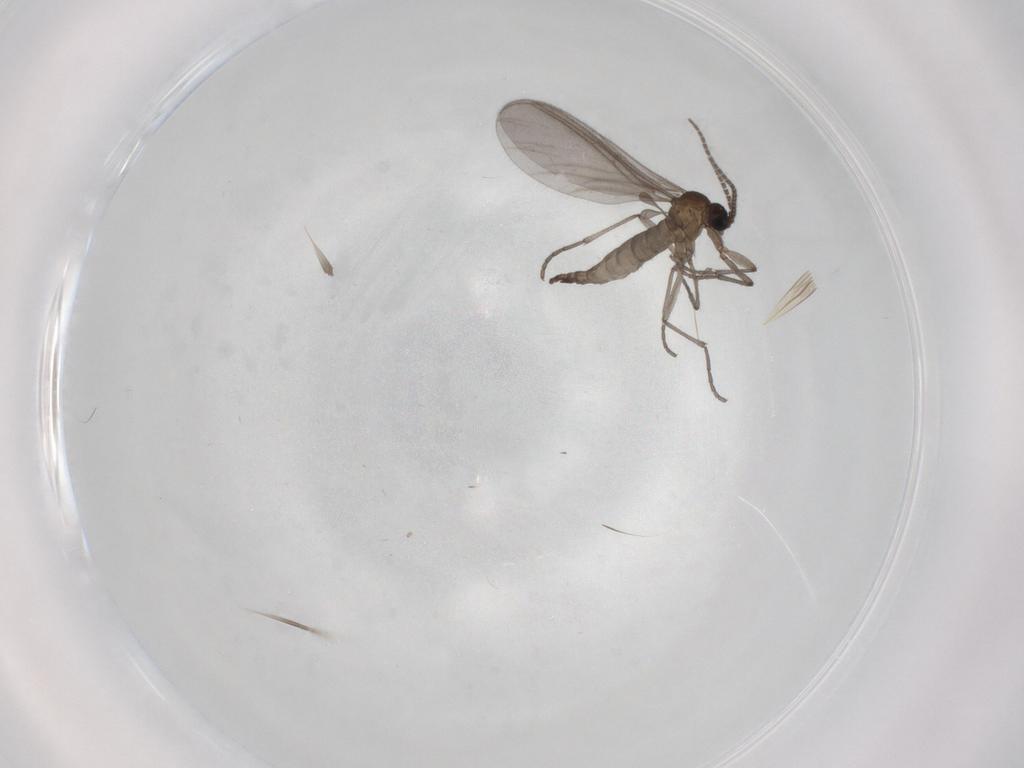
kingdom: Animalia
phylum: Arthropoda
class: Insecta
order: Diptera
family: Sciaridae
